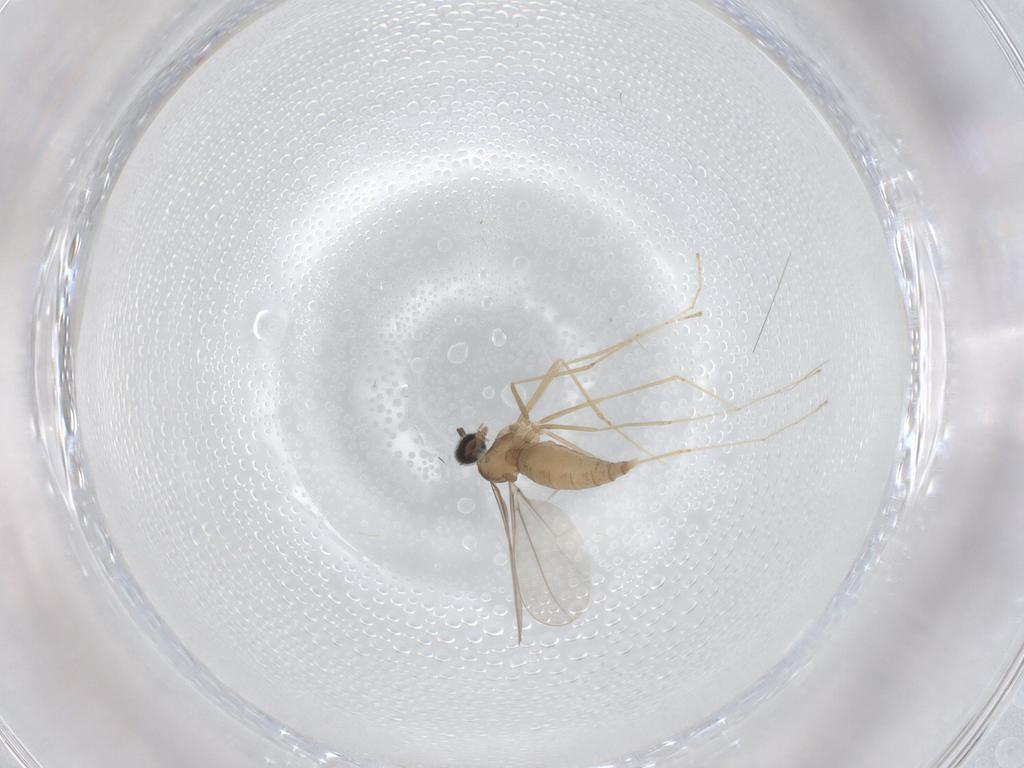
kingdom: Animalia
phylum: Arthropoda
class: Insecta
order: Diptera
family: Cecidomyiidae
